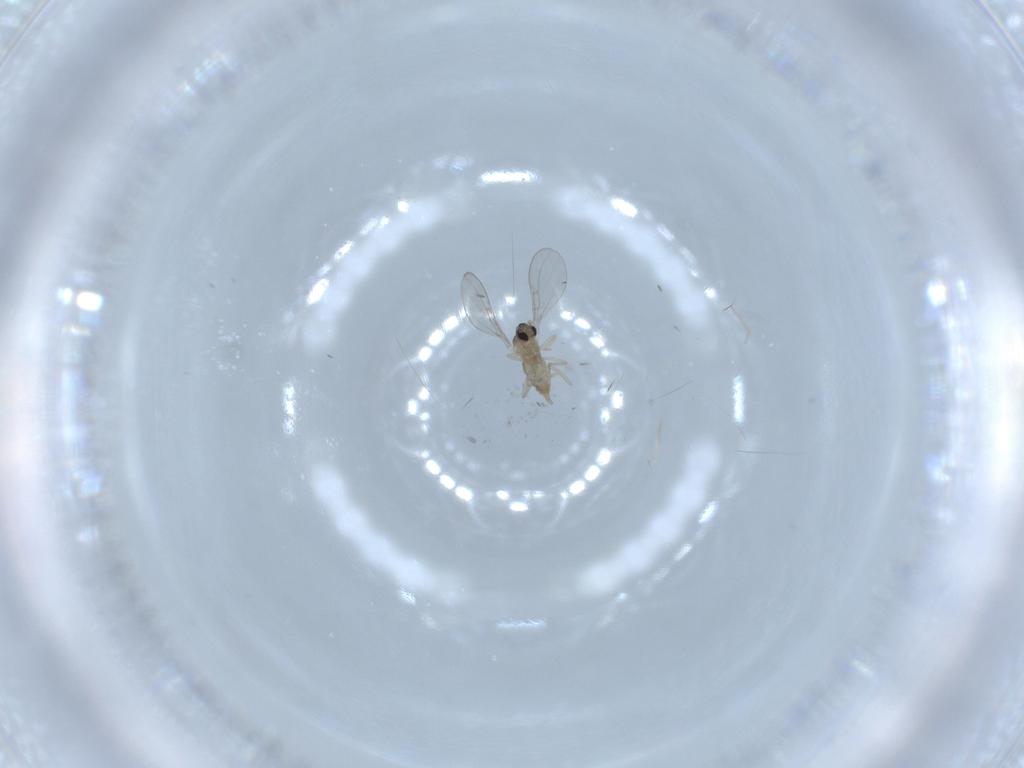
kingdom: Animalia
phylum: Arthropoda
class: Insecta
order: Diptera
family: Cecidomyiidae
